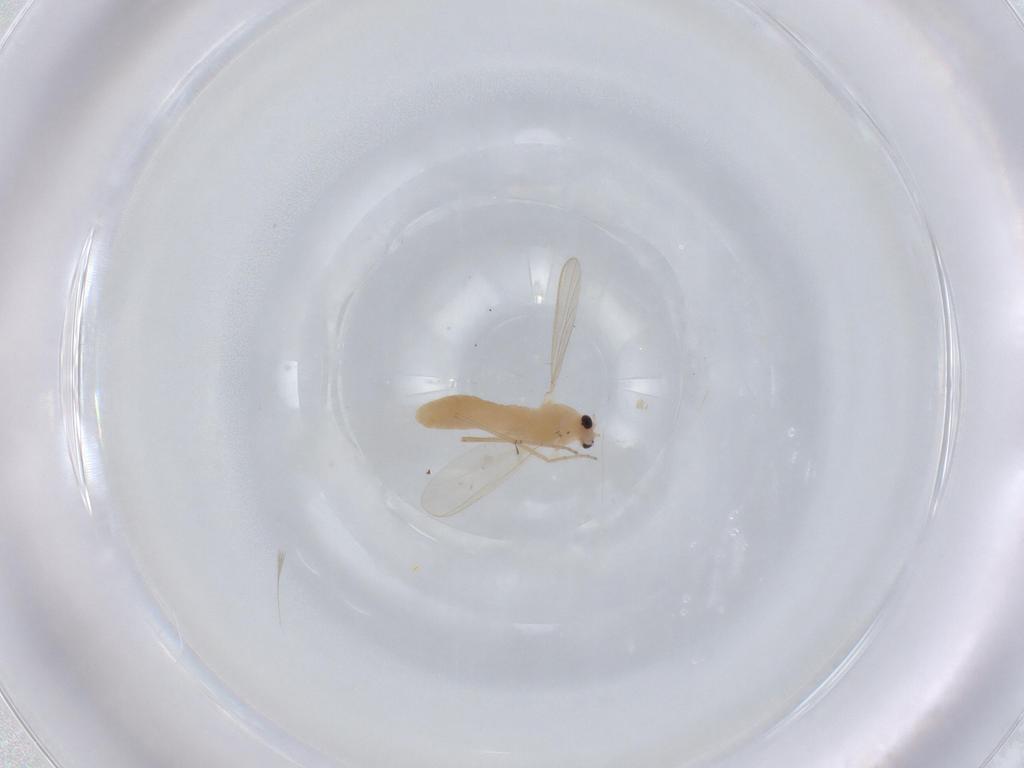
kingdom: Animalia
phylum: Arthropoda
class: Insecta
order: Diptera
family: Chironomidae
